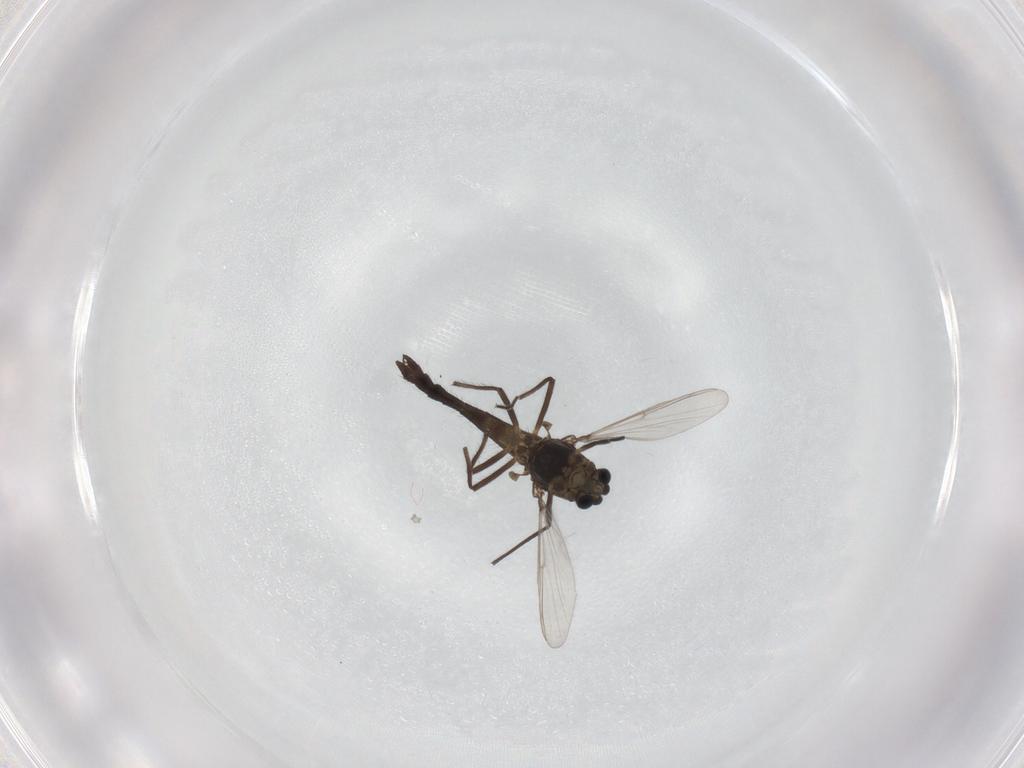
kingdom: Animalia
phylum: Arthropoda
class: Insecta
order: Diptera
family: Chironomidae
